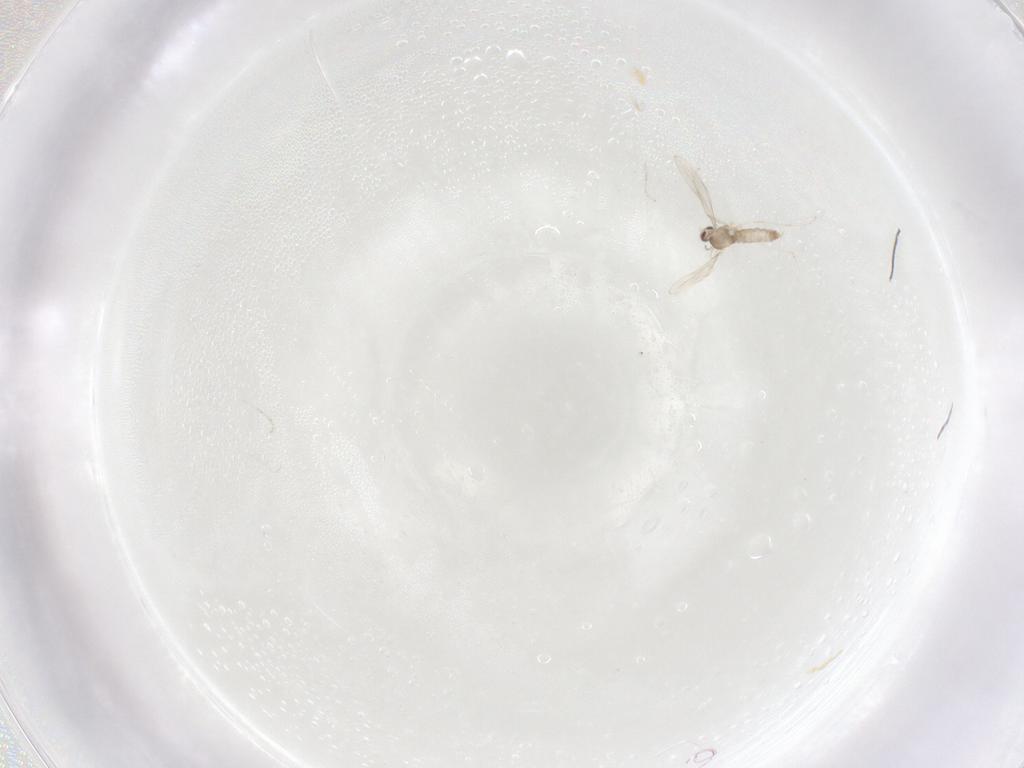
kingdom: Animalia
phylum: Arthropoda
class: Insecta
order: Diptera
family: Cecidomyiidae
